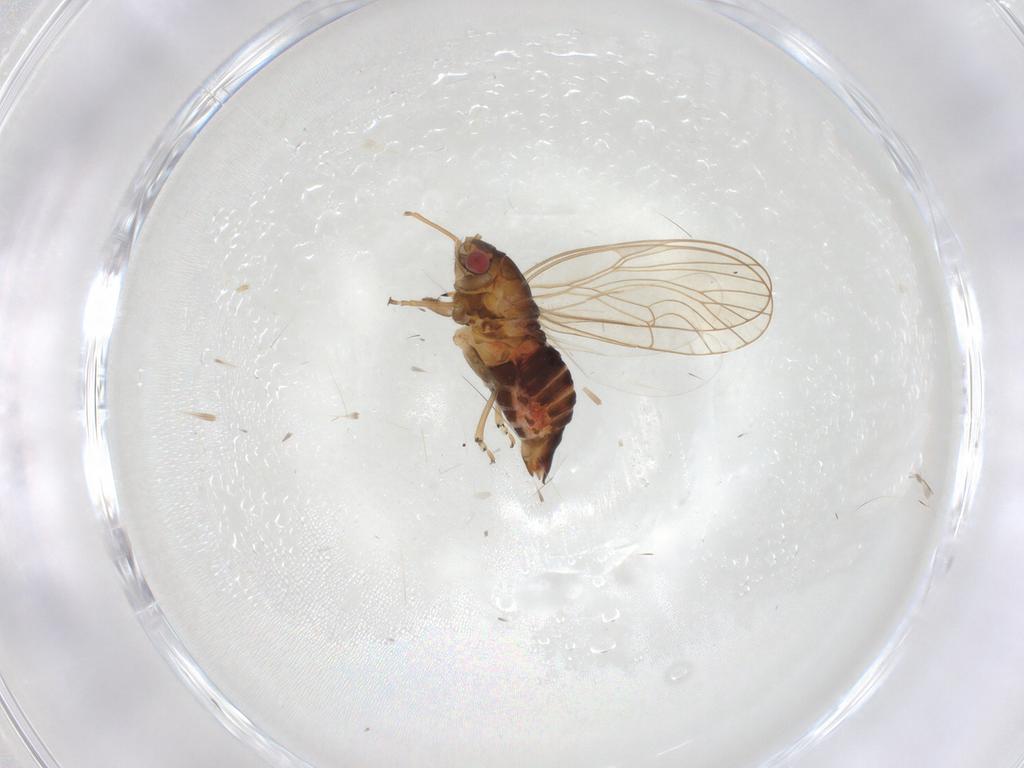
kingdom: Animalia
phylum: Arthropoda
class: Insecta
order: Hemiptera
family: Psyllidae
